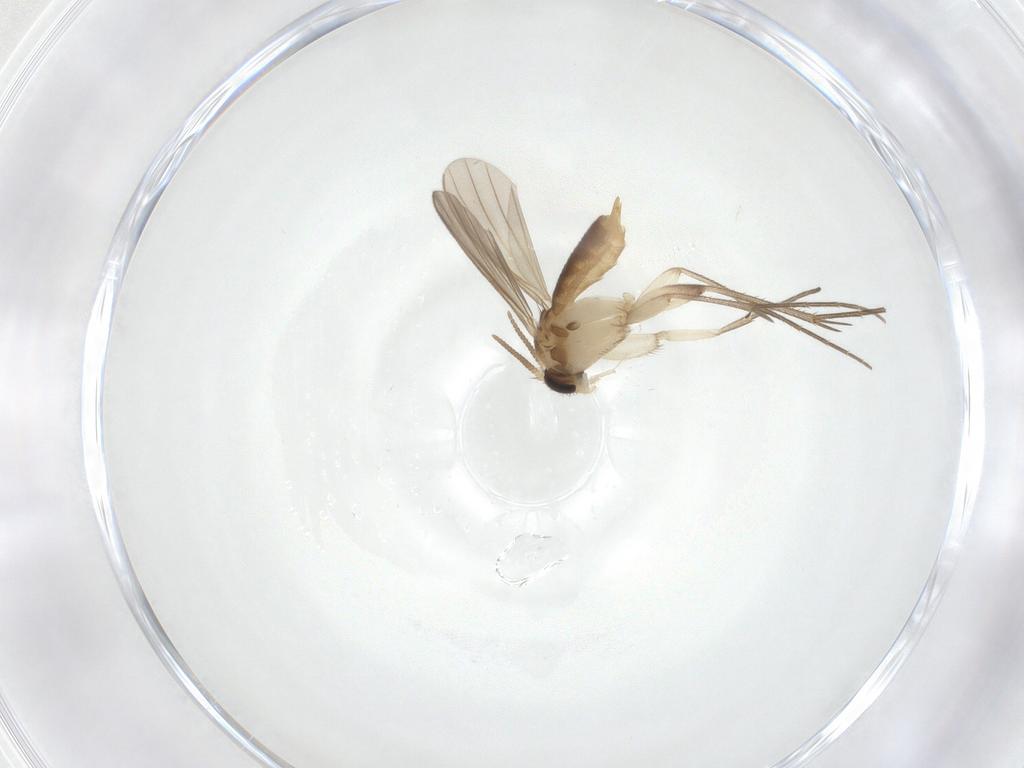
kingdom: Animalia
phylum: Arthropoda
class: Insecta
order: Diptera
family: Mycetophilidae
